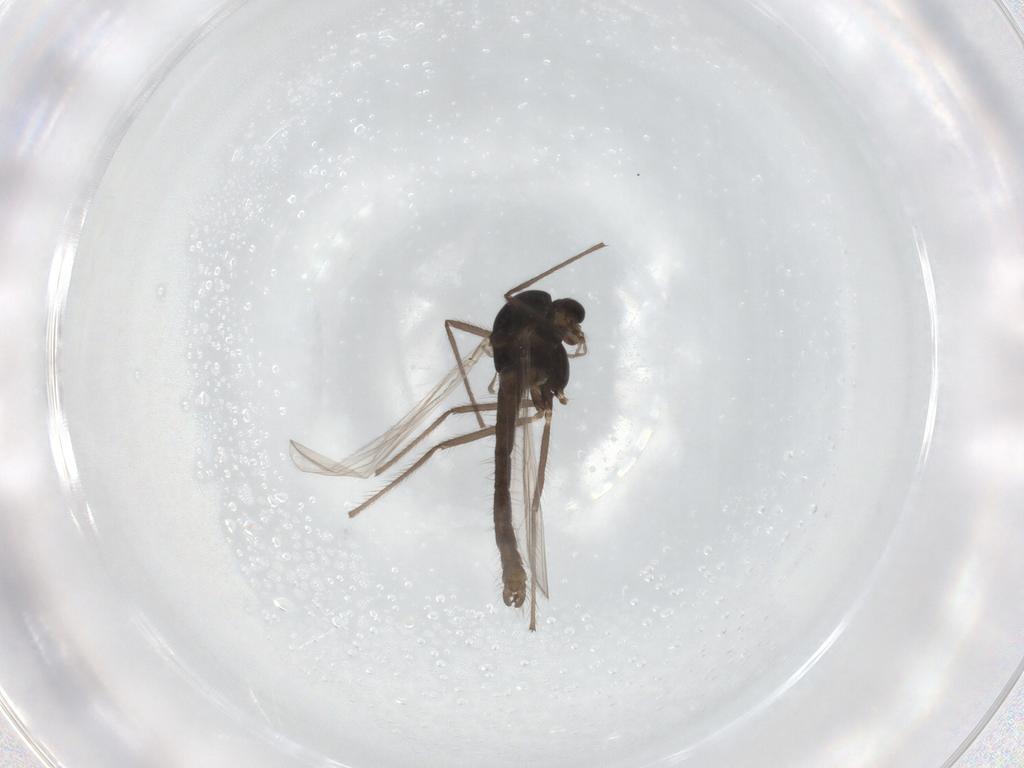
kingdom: Animalia
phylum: Arthropoda
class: Insecta
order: Diptera
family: Chironomidae
